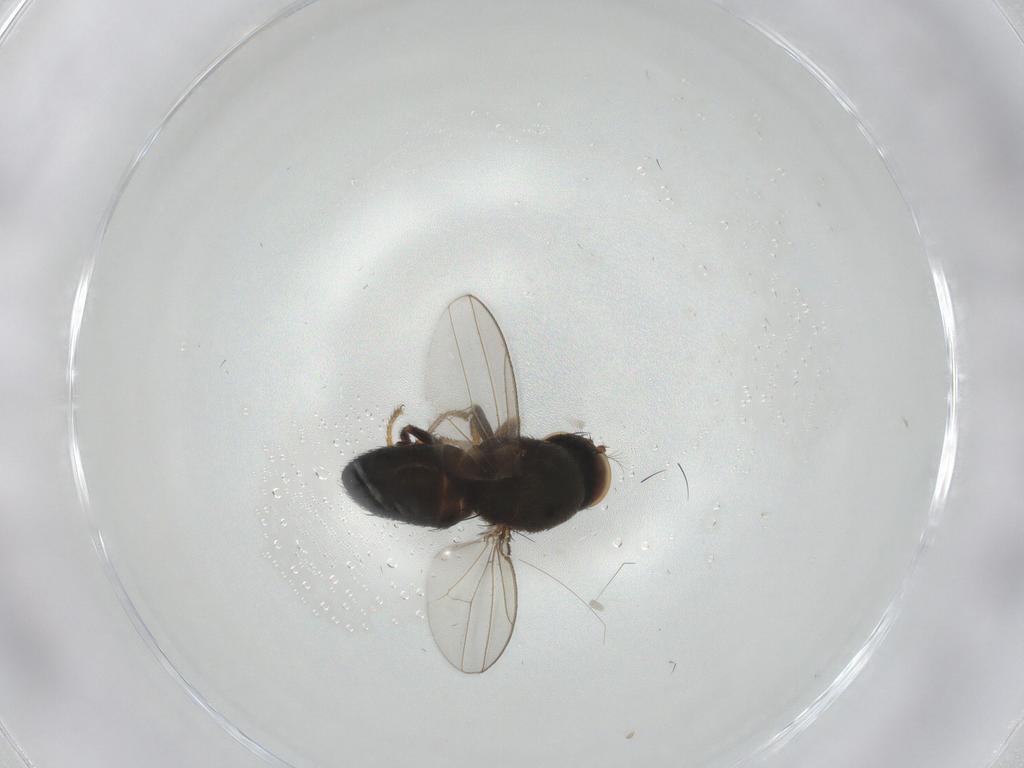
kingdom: Animalia
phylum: Arthropoda
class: Insecta
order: Diptera
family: Ephydridae
